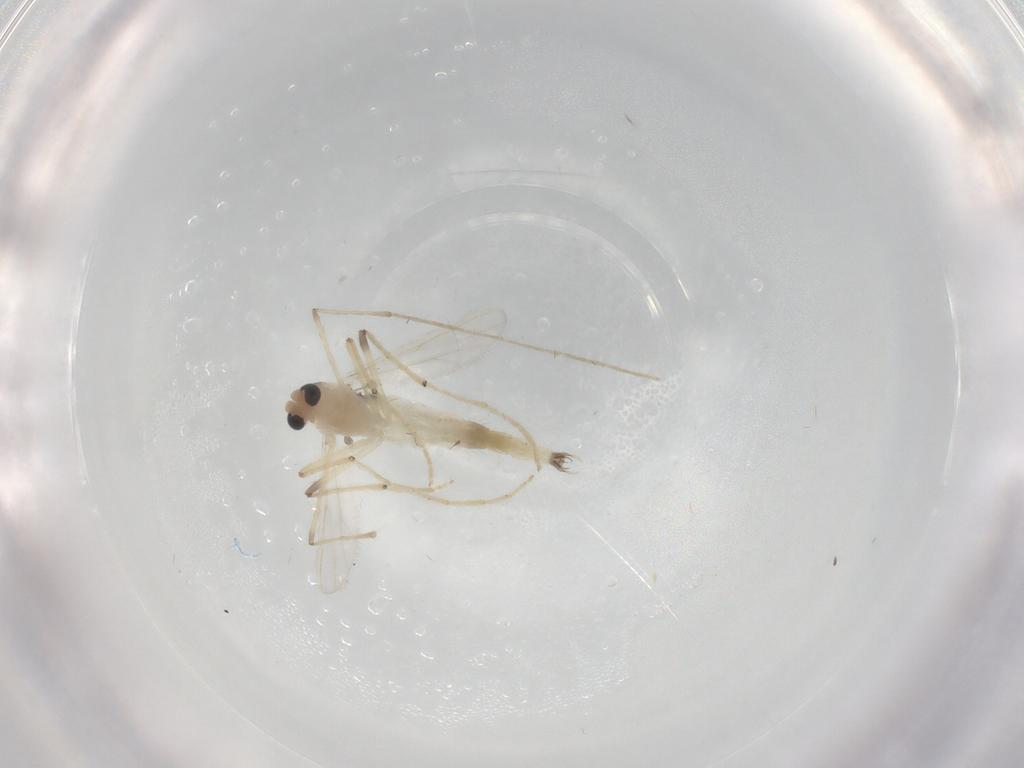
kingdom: Animalia
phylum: Arthropoda
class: Insecta
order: Diptera
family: Chironomidae
